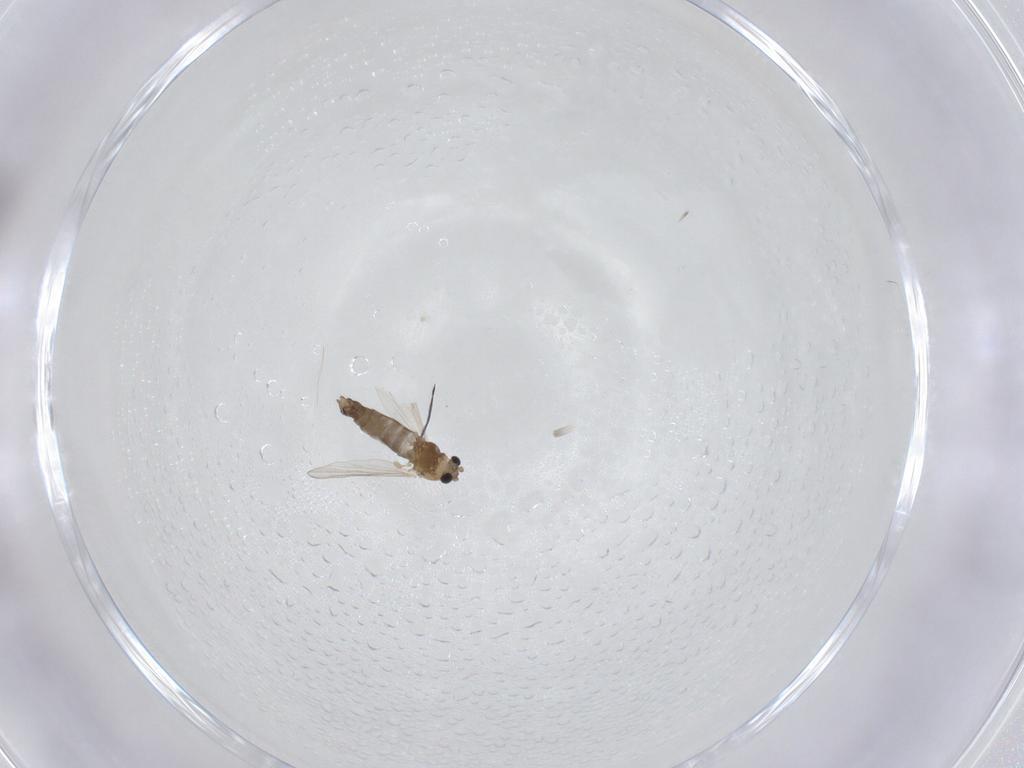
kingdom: Animalia
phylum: Arthropoda
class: Insecta
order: Diptera
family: Chironomidae
